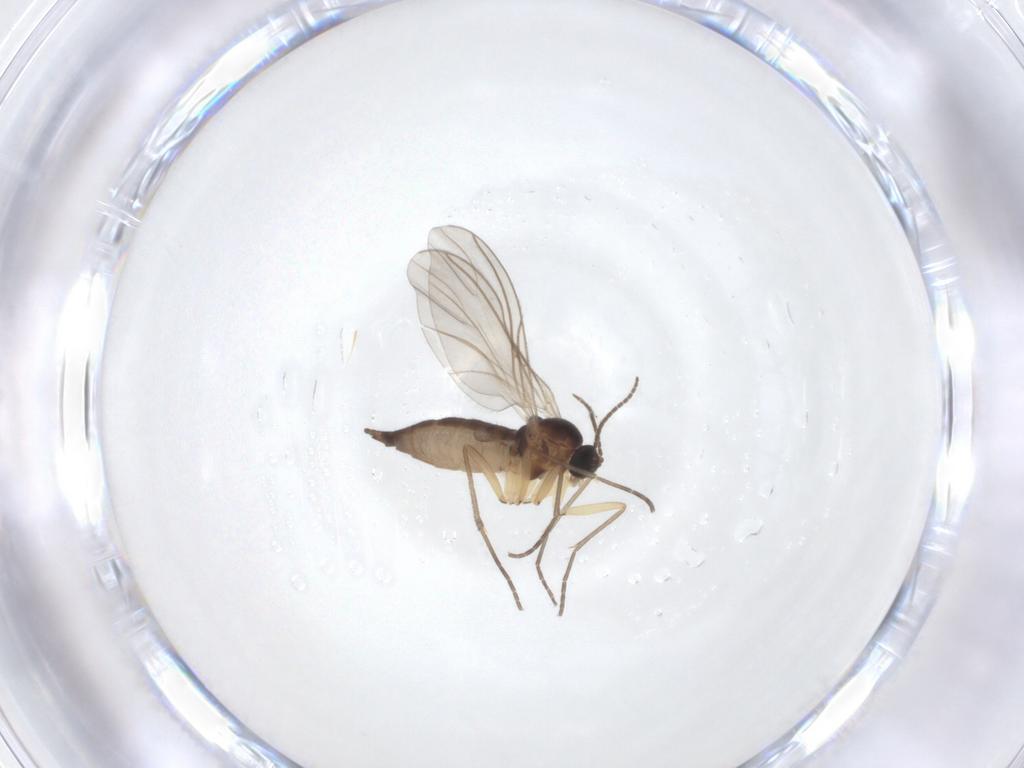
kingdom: Animalia
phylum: Arthropoda
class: Insecta
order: Diptera
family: Sciaridae
